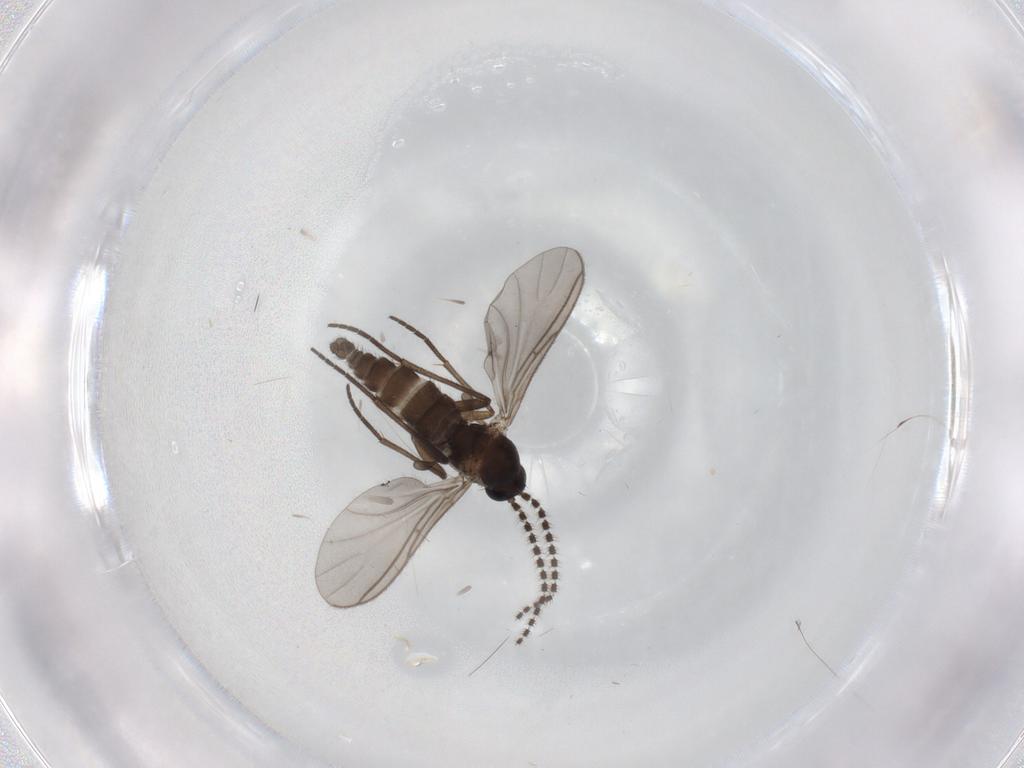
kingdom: Animalia
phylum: Arthropoda
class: Insecta
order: Diptera
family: Sciaridae
